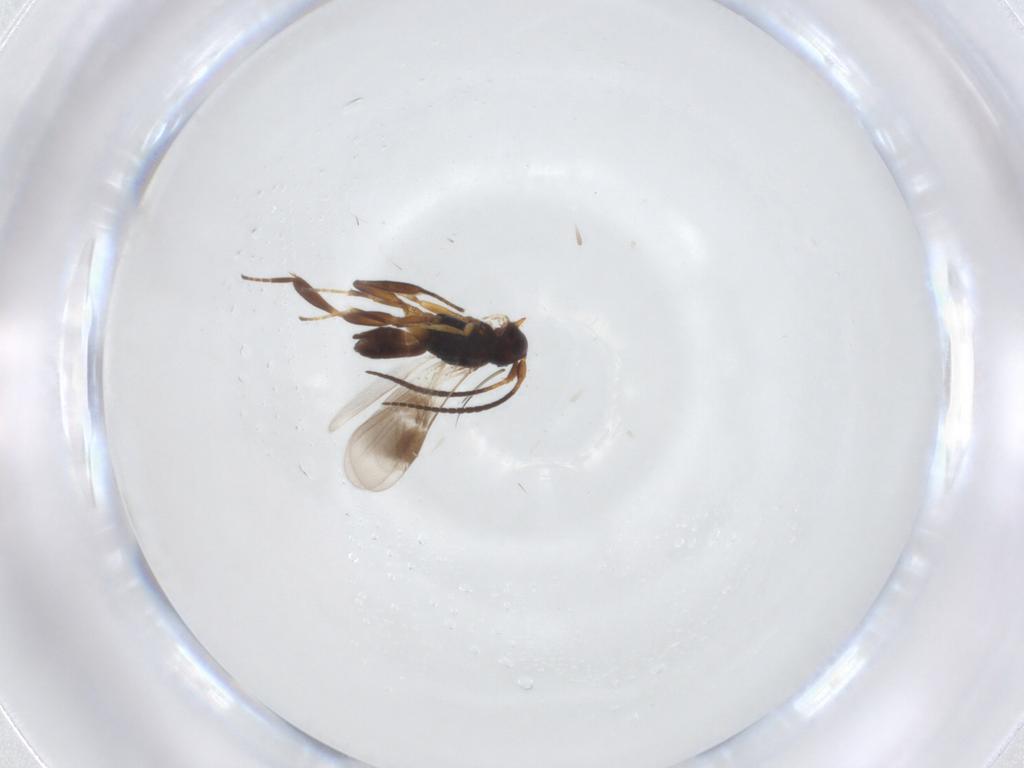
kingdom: Animalia
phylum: Arthropoda
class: Insecta
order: Hymenoptera
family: Braconidae
